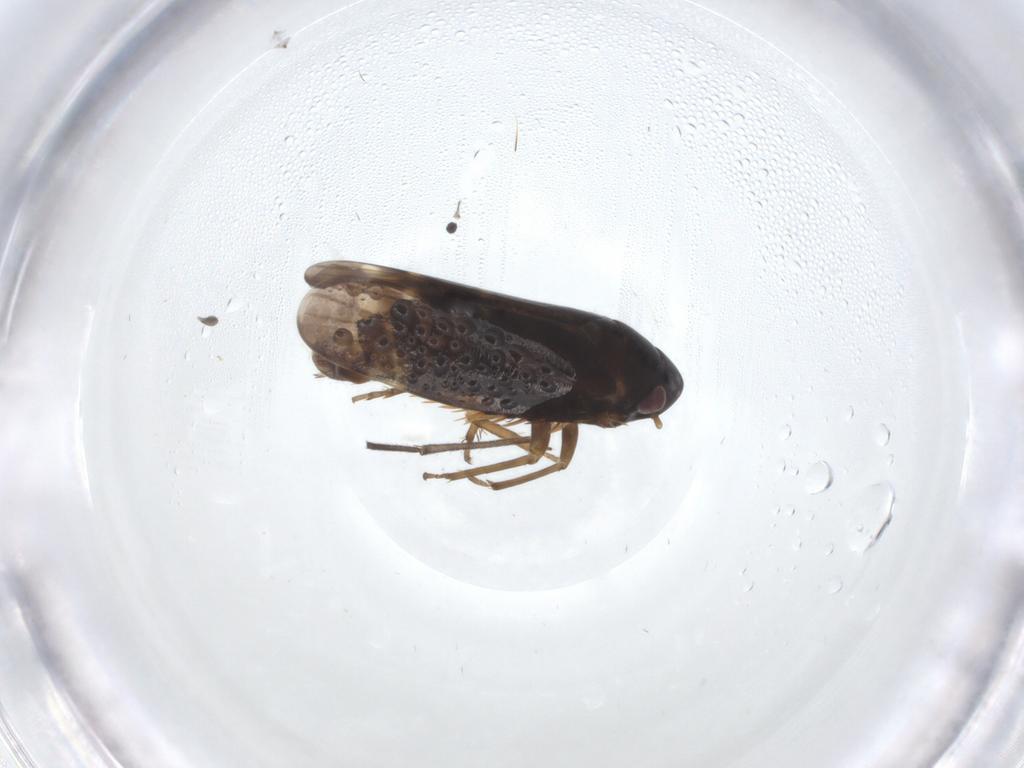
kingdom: Animalia
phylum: Arthropoda
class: Insecta
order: Hemiptera
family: Cicadellidae
